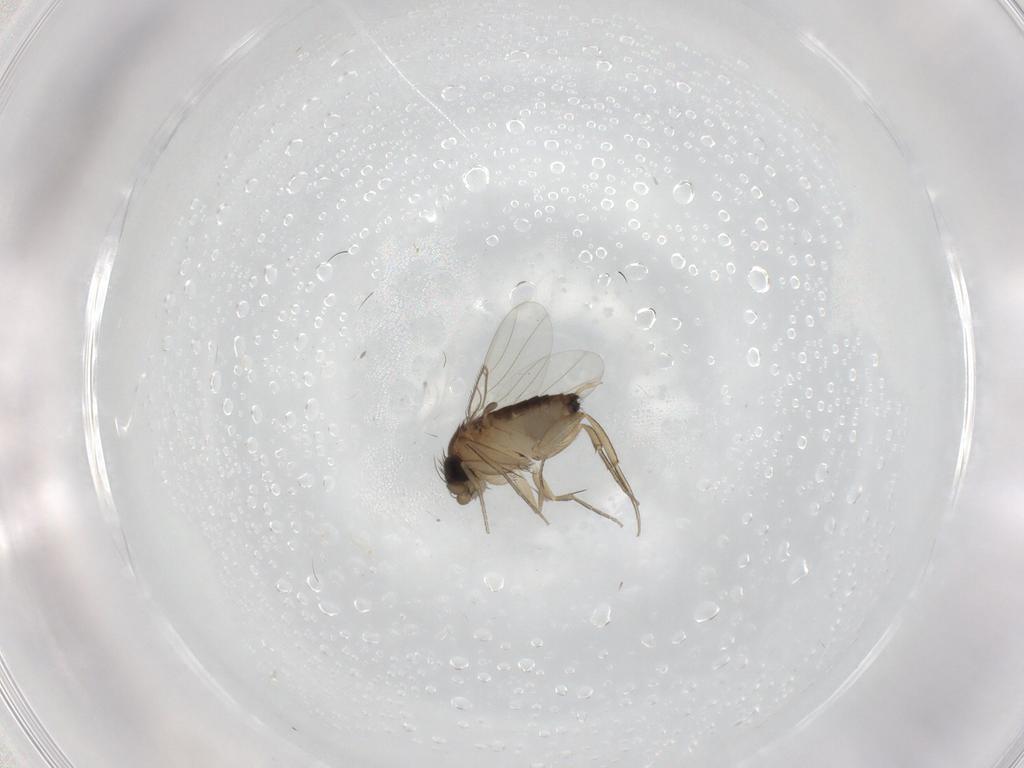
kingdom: Animalia
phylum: Arthropoda
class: Insecta
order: Diptera
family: Phoridae
